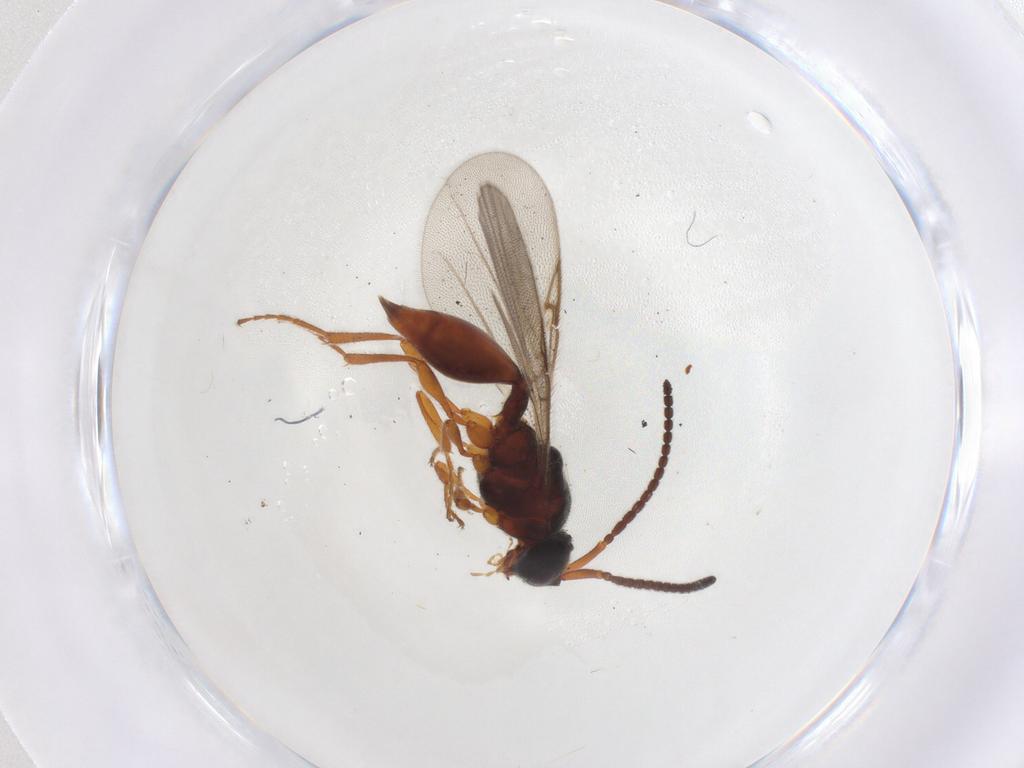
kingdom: Animalia
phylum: Arthropoda
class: Insecta
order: Hymenoptera
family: Diapriidae
